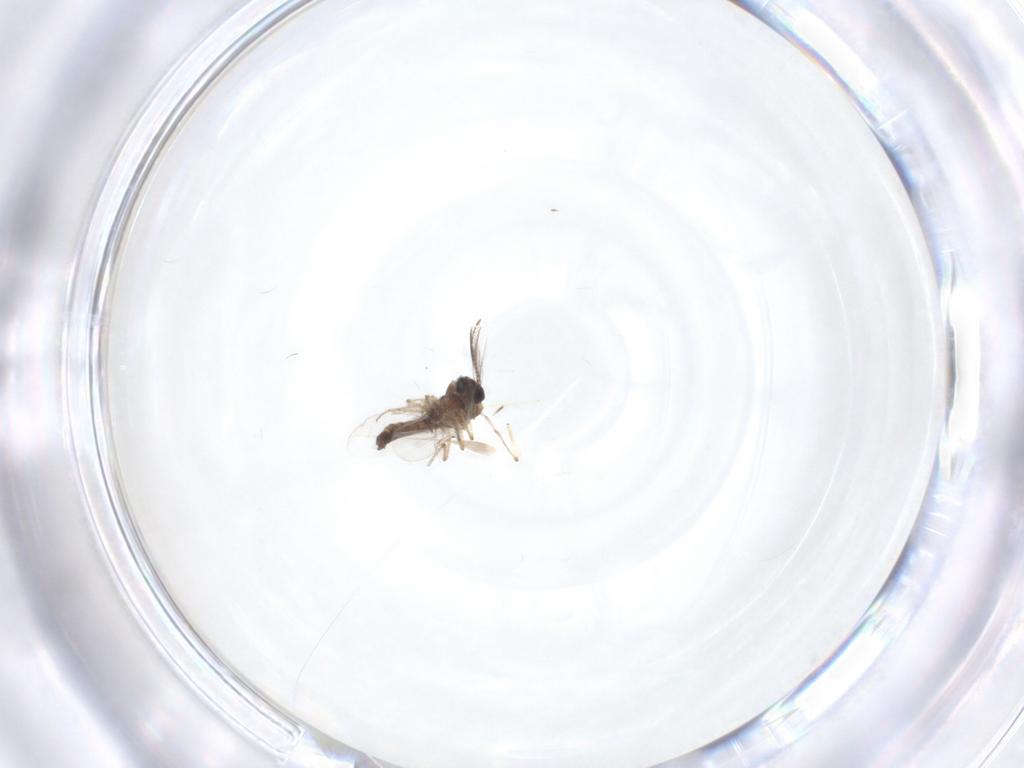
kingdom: Animalia
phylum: Arthropoda
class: Insecta
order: Diptera
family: Ceratopogonidae
